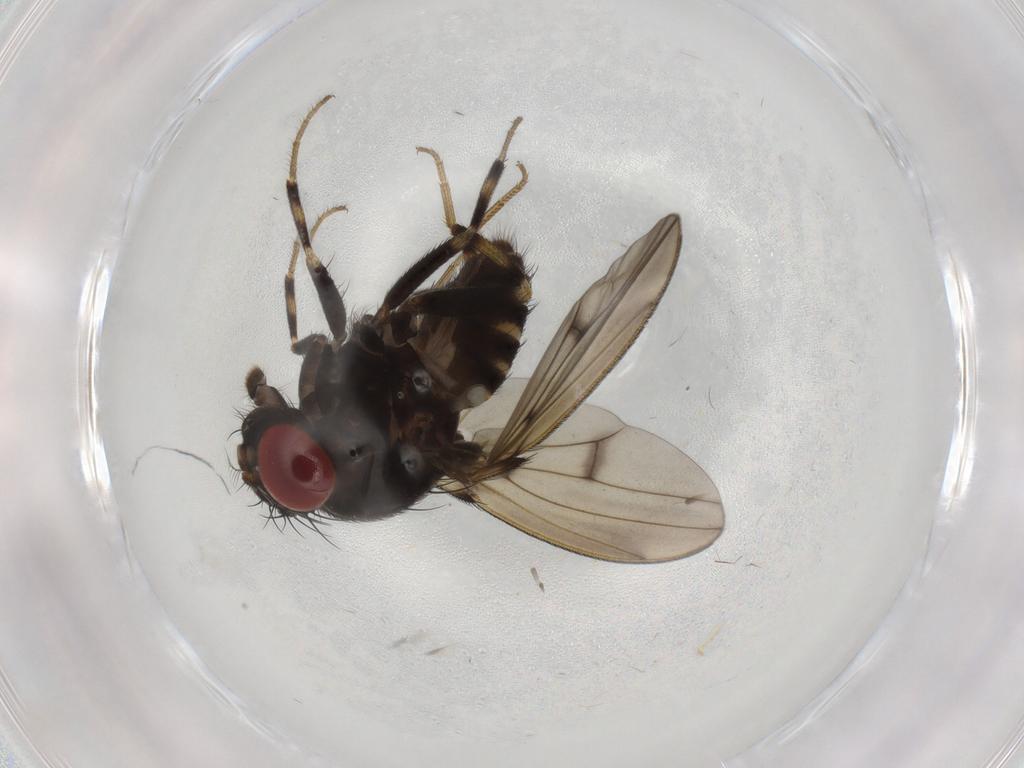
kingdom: Animalia
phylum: Arthropoda
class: Insecta
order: Diptera
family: Drosophilidae
